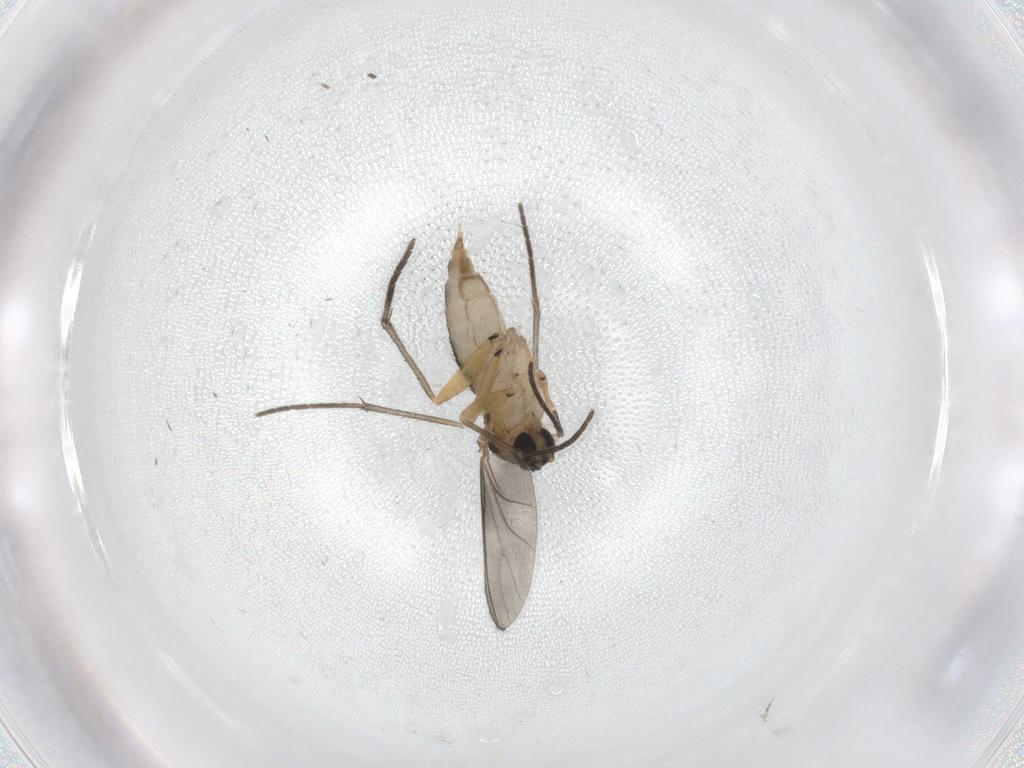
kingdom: Animalia
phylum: Arthropoda
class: Insecta
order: Diptera
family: Sciaridae
